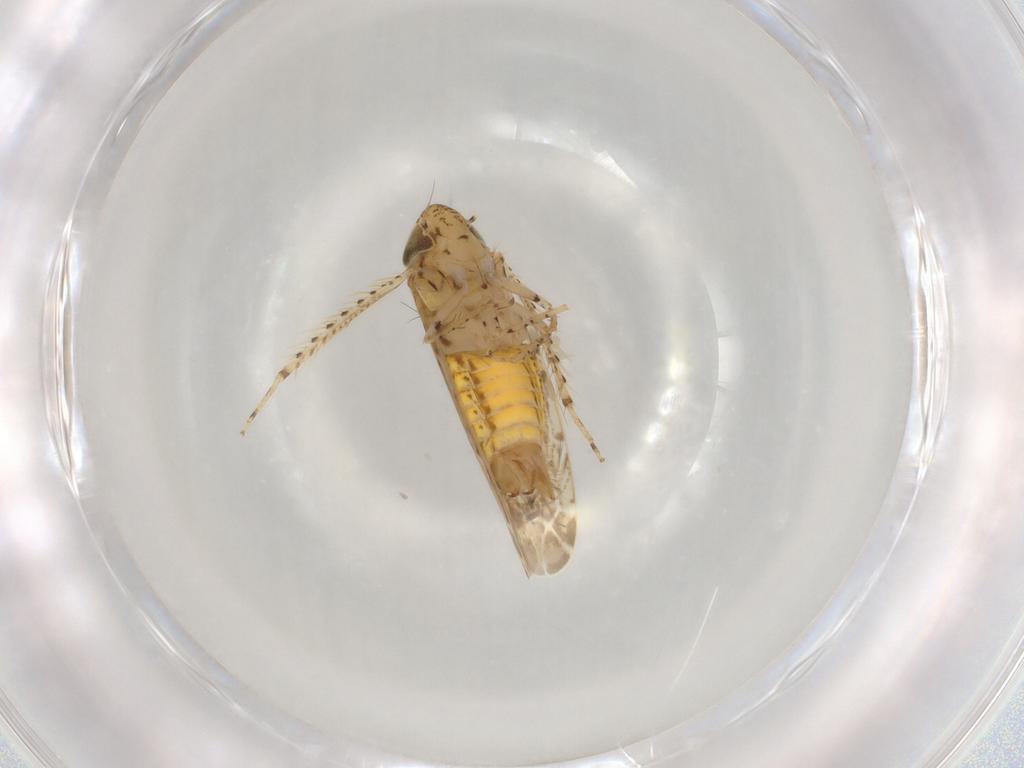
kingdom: Animalia
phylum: Arthropoda
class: Insecta
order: Hemiptera
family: Cicadellidae
